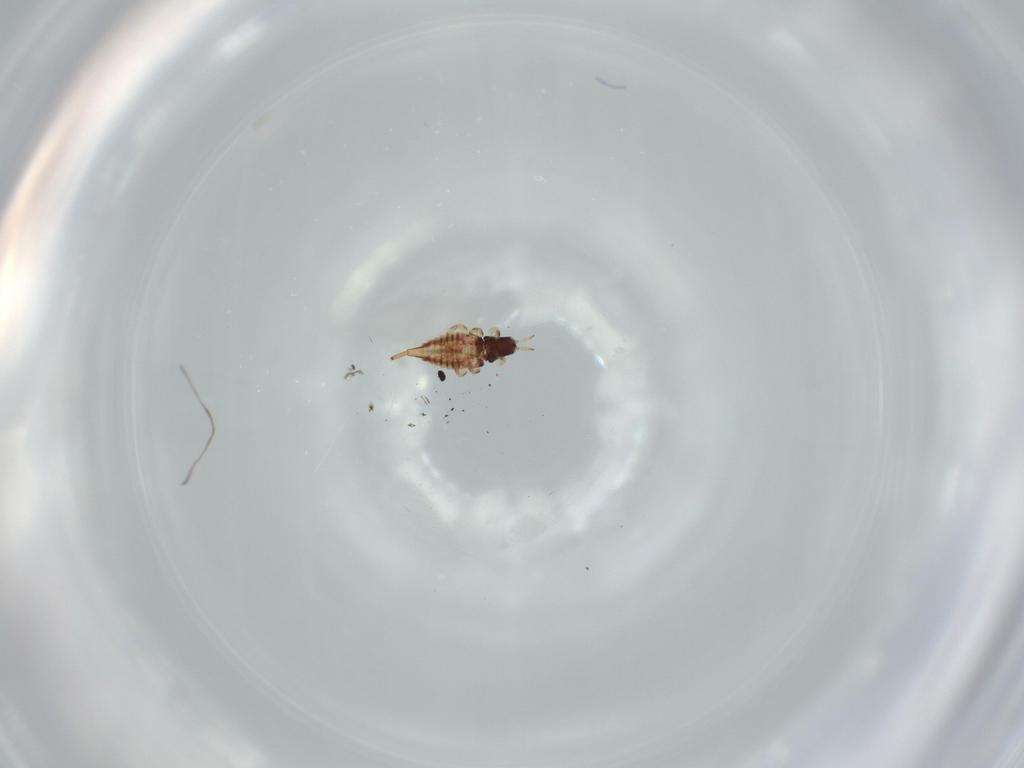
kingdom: Animalia
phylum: Arthropoda
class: Insecta
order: Thysanoptera
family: Phlaeothripidae
